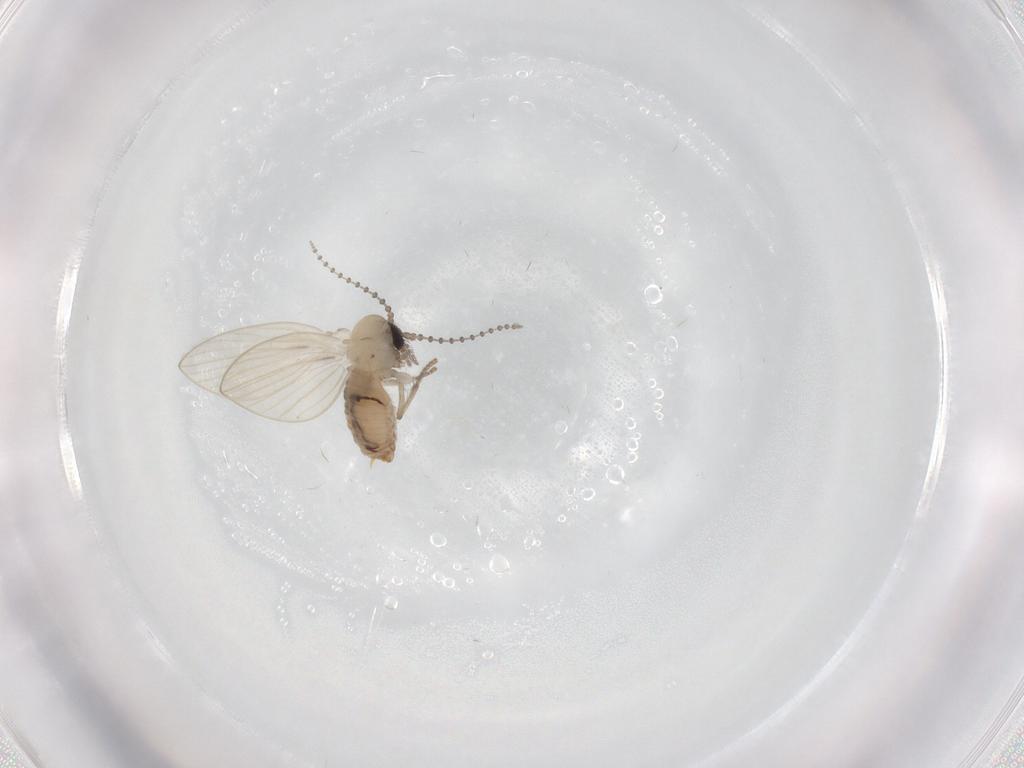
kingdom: Animalia
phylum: Arthropoda
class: Insecta
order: Diptera
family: Psychodidae
